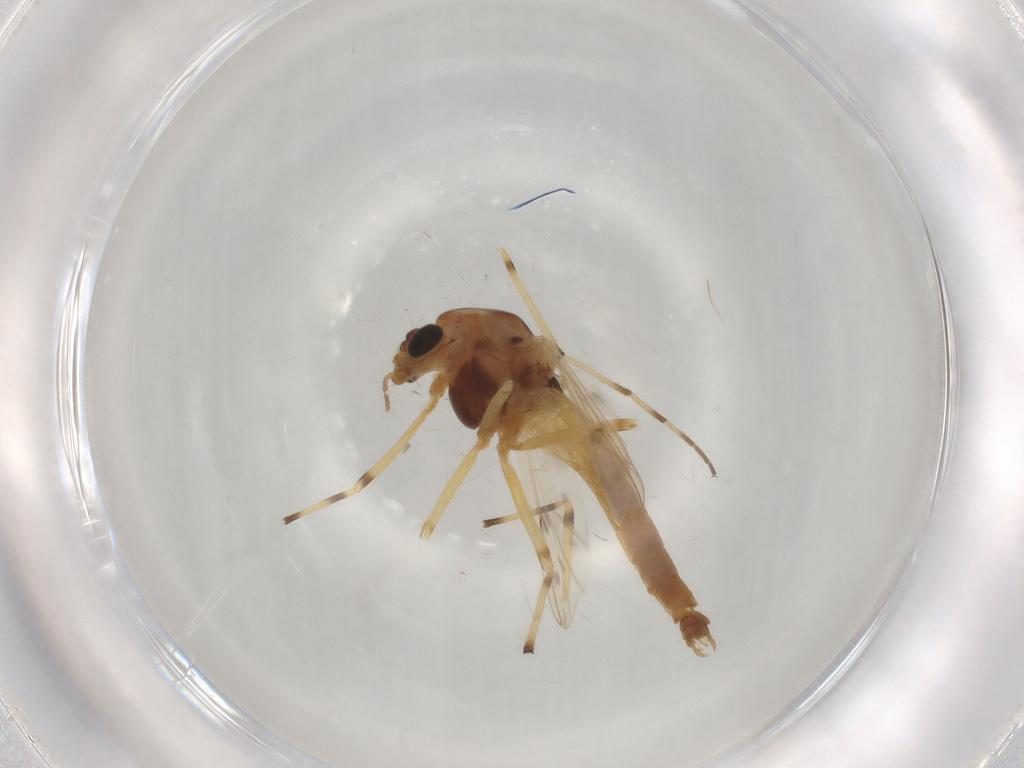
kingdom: Animalia
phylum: Arthropoda
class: Insecta
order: Diptera
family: Chironomidae
